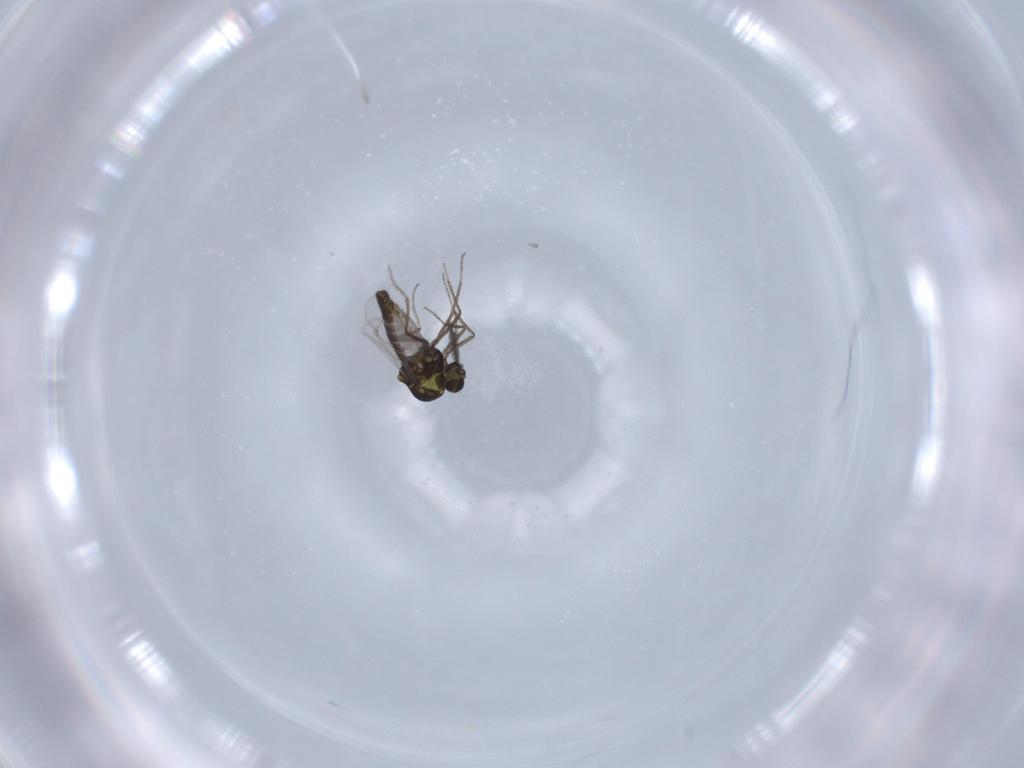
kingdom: Animalia
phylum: Arthropoda
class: Insecta
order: Diptera
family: Ceratopogonidae
